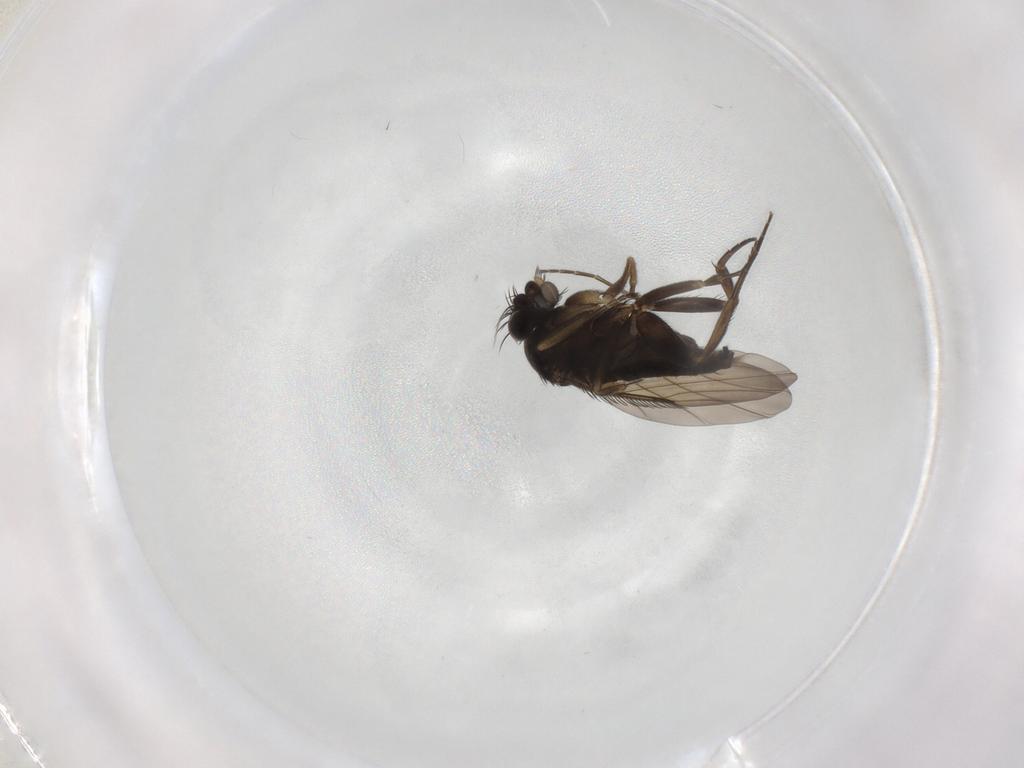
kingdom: Animalia
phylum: Arthropoda
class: Insecta
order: Diptera
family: Phoridae
